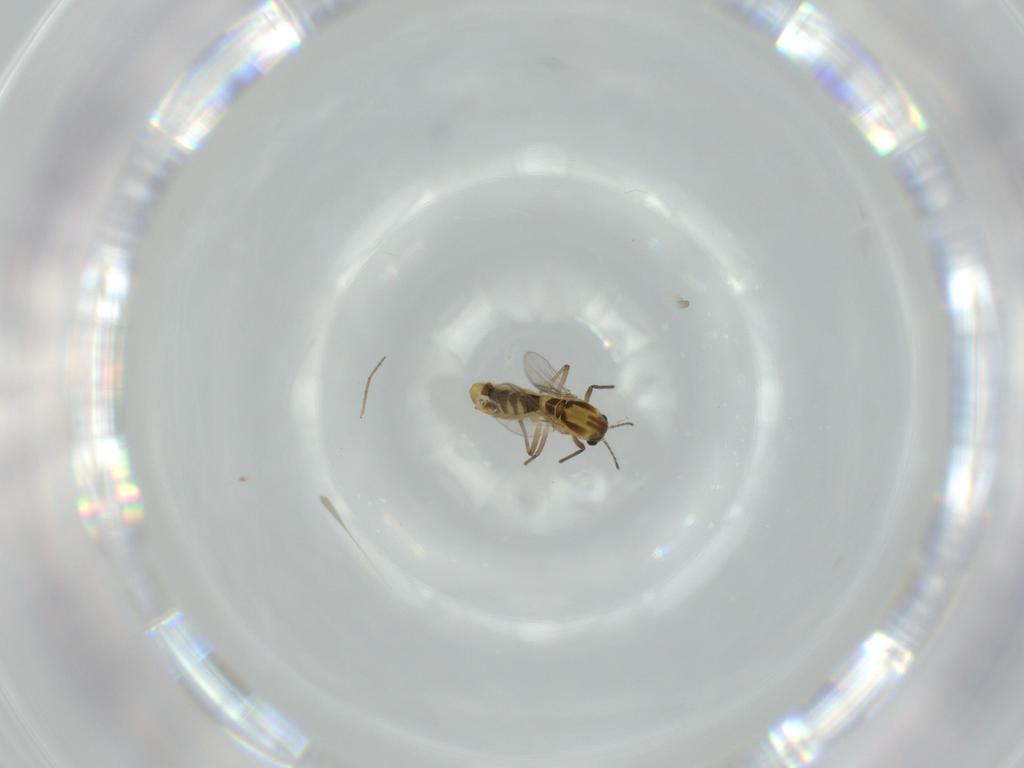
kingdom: Animalia
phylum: Arthropoda
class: Insecta
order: Diptera
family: Chironomidae
